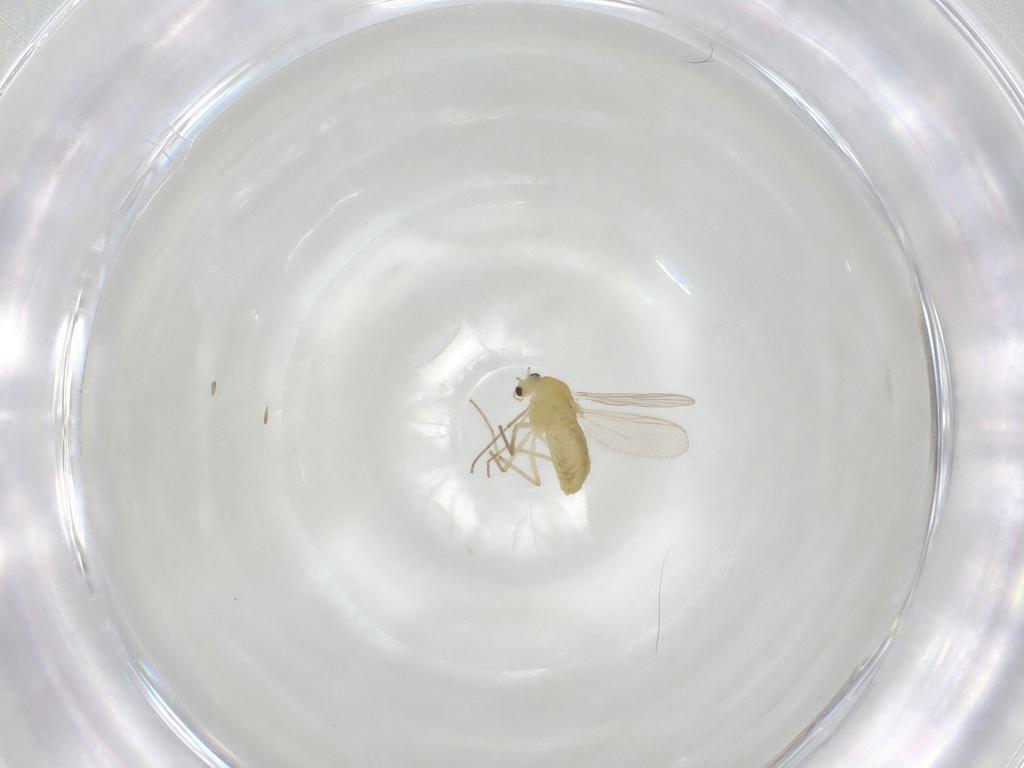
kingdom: Animalia
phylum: Arthropoda
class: Insecta
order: Diptera
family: Chironomidae
